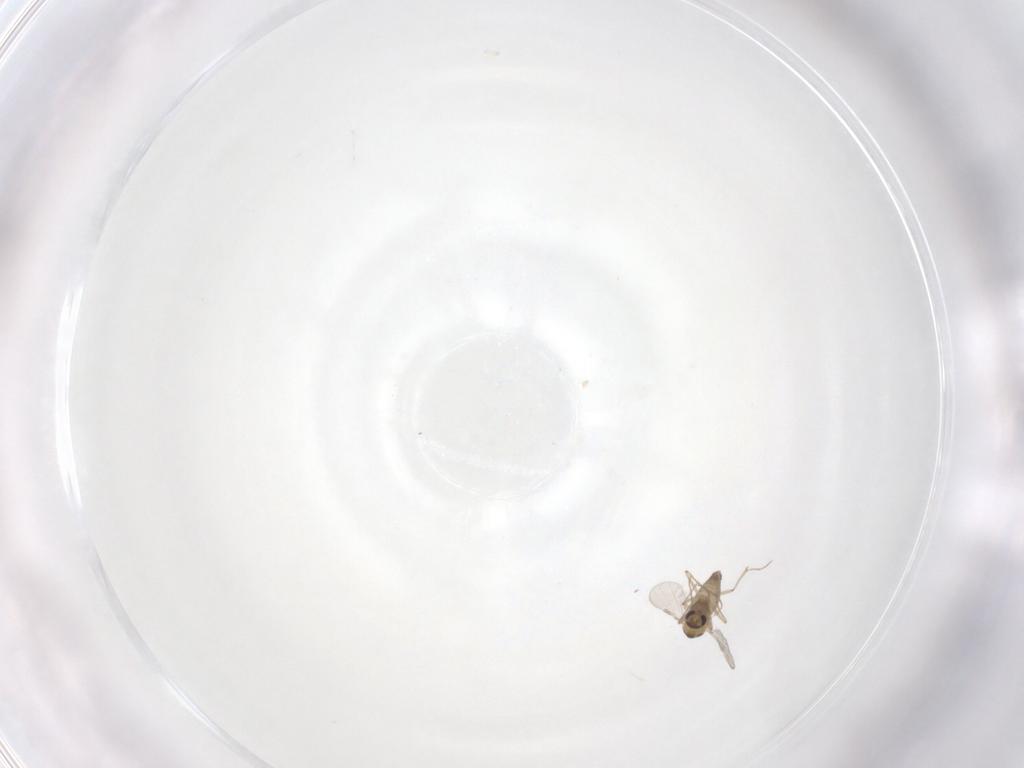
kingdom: Animalia
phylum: Arthropoda
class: Insecta
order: Diptera
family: Chironomidae
